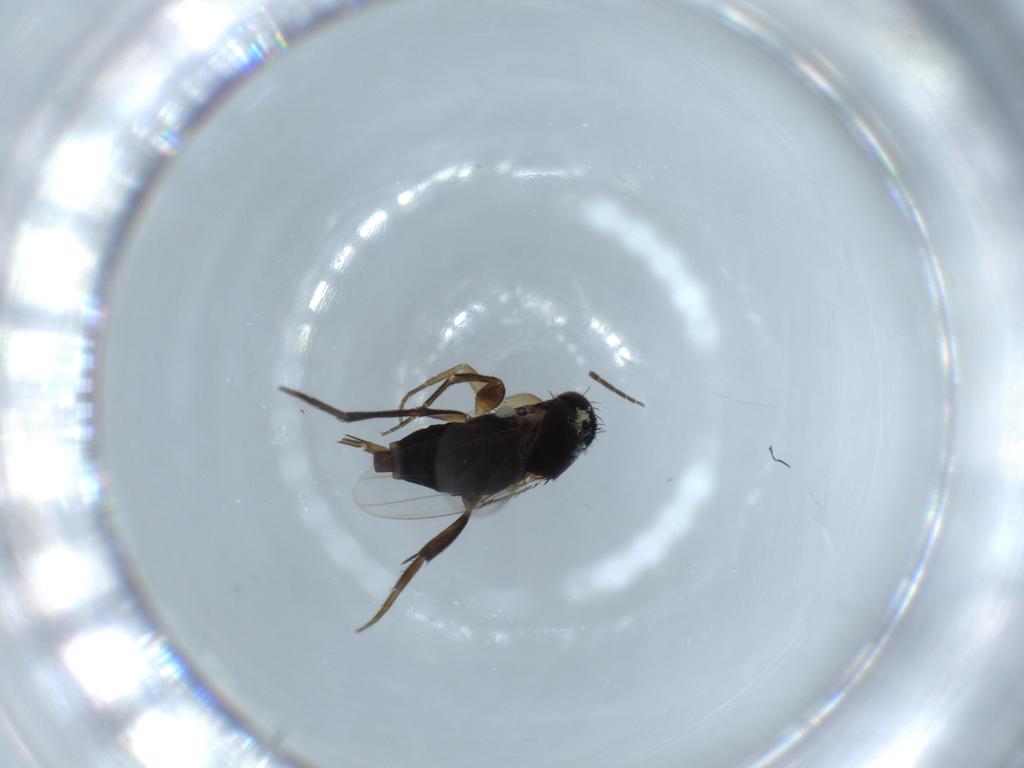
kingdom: Animalia
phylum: Arthropoda
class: Insecta
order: Diptera
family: Phoridae
